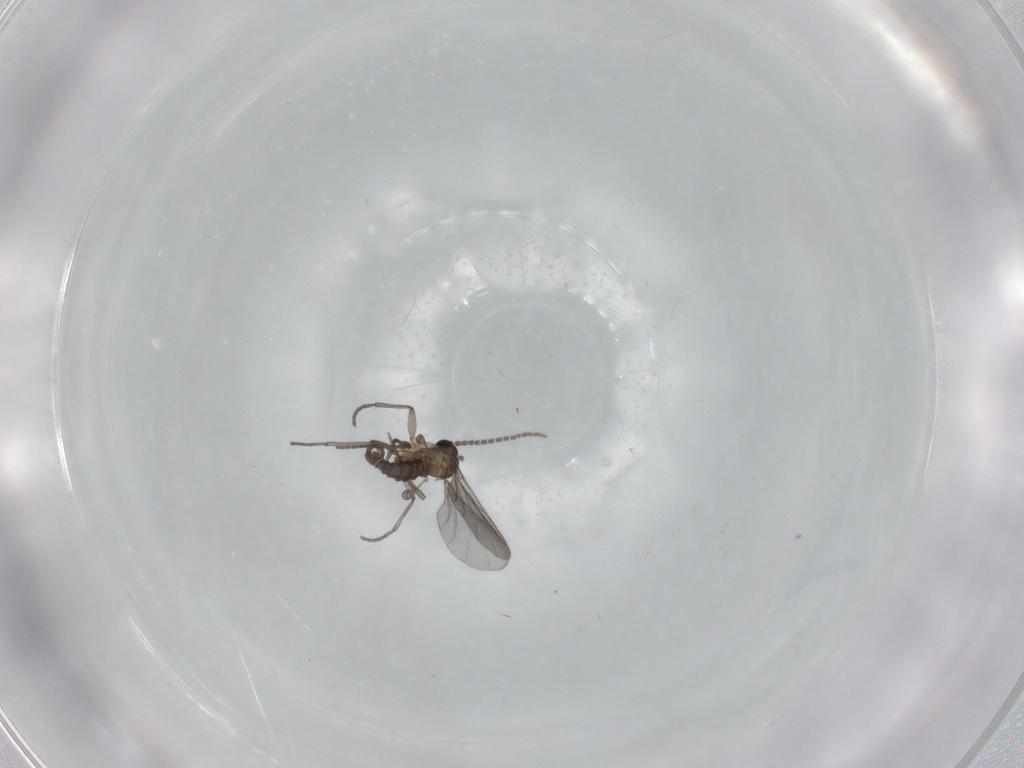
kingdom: Animalia
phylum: Arthropoda
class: Insecta
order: Diptera
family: Sciaridae
